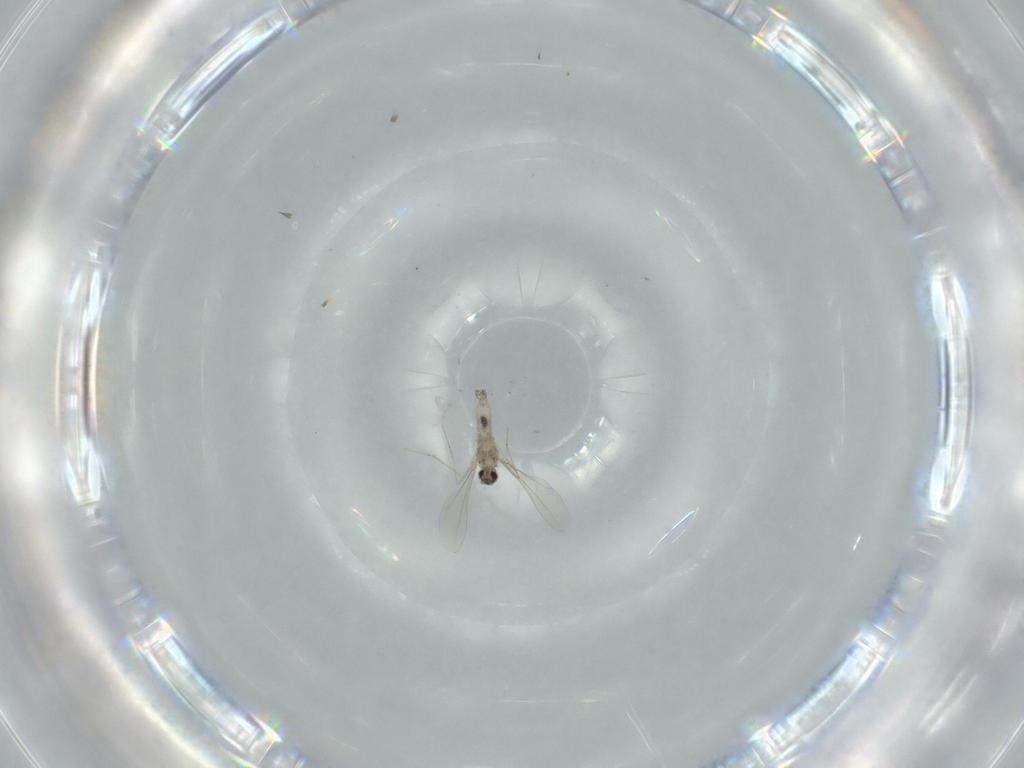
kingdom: Animalia
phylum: Arthropoda
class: Insecta
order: Diptera
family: Cecidomyiidae
